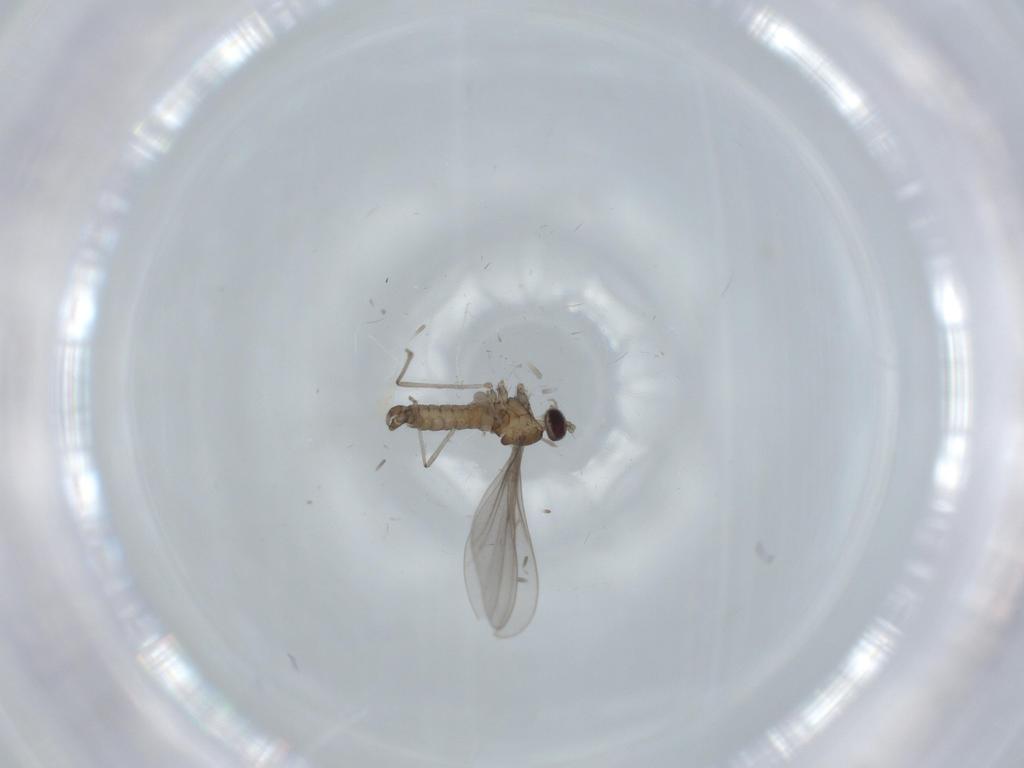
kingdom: Animalia
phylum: Arthropoda
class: Insecta
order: Diptera
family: Cecidomyiidae
